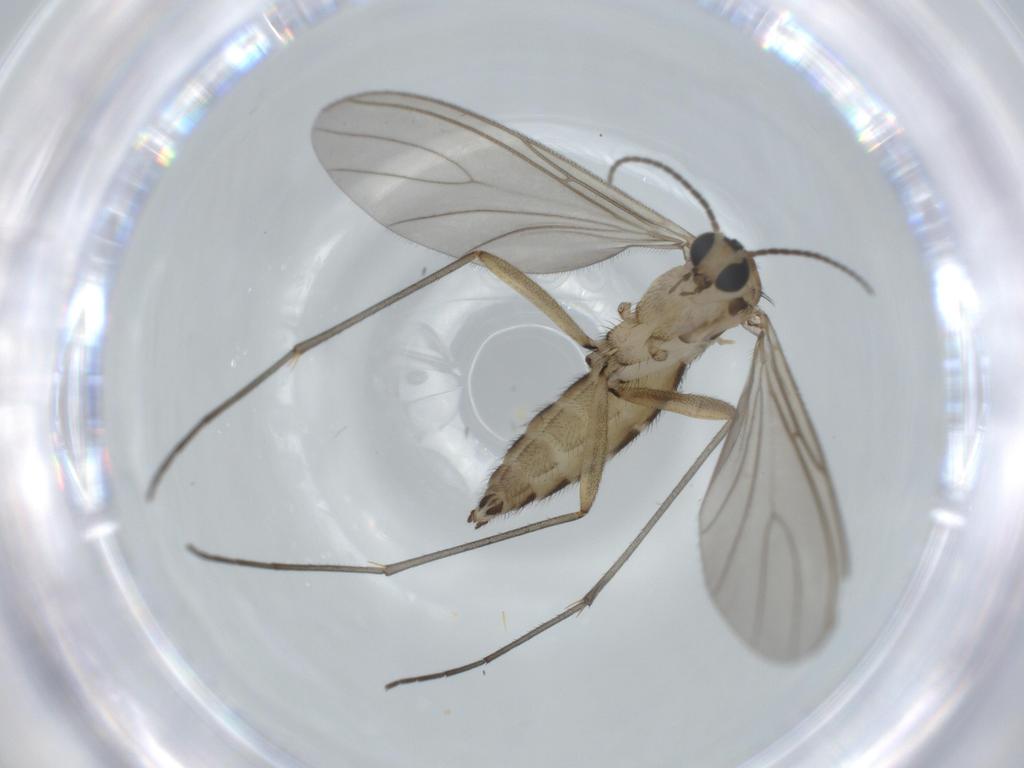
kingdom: Animalia
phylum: Arthropoda
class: Insecta
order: Diptera
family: Sciaridae
